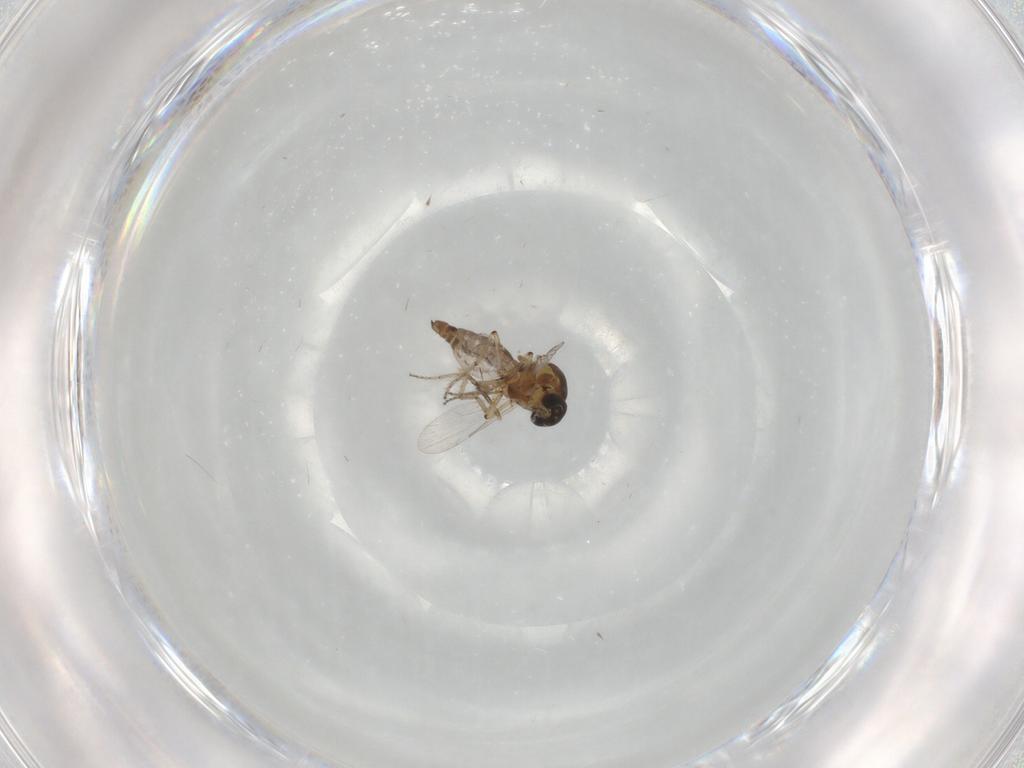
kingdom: Animalia
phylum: Arthropoda
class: Insecta
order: Diptera
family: Ceratopogonidae
